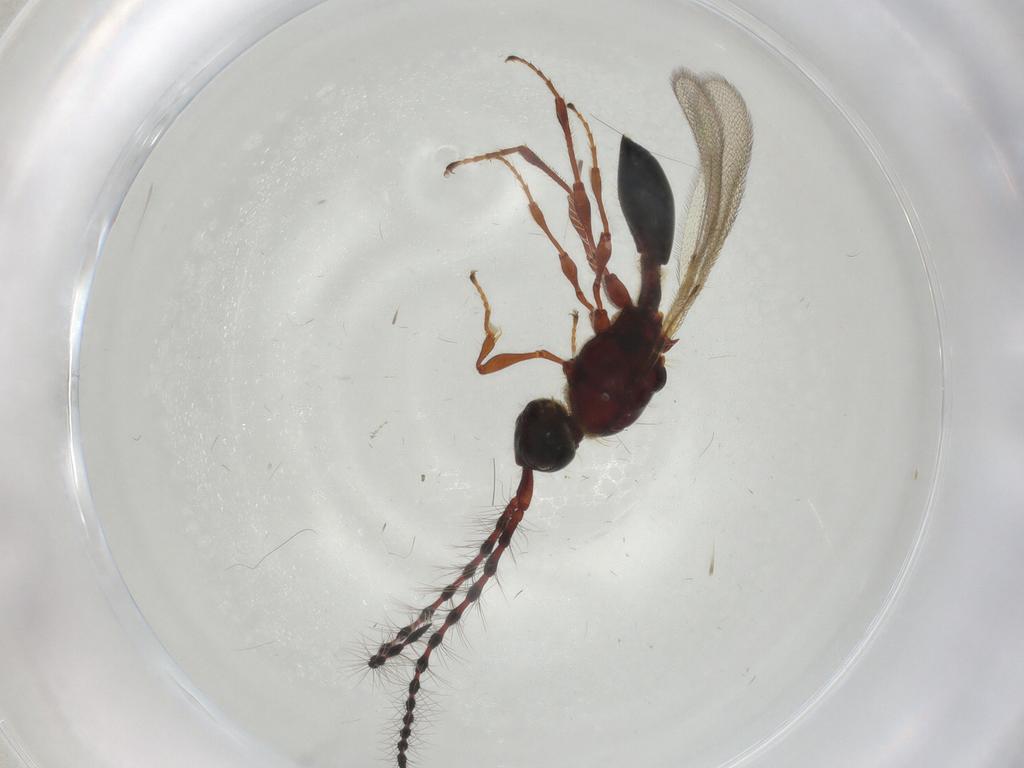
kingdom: Animalia
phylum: Arthropoda
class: Insecta
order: Hymenoptera
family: Diapriidae
